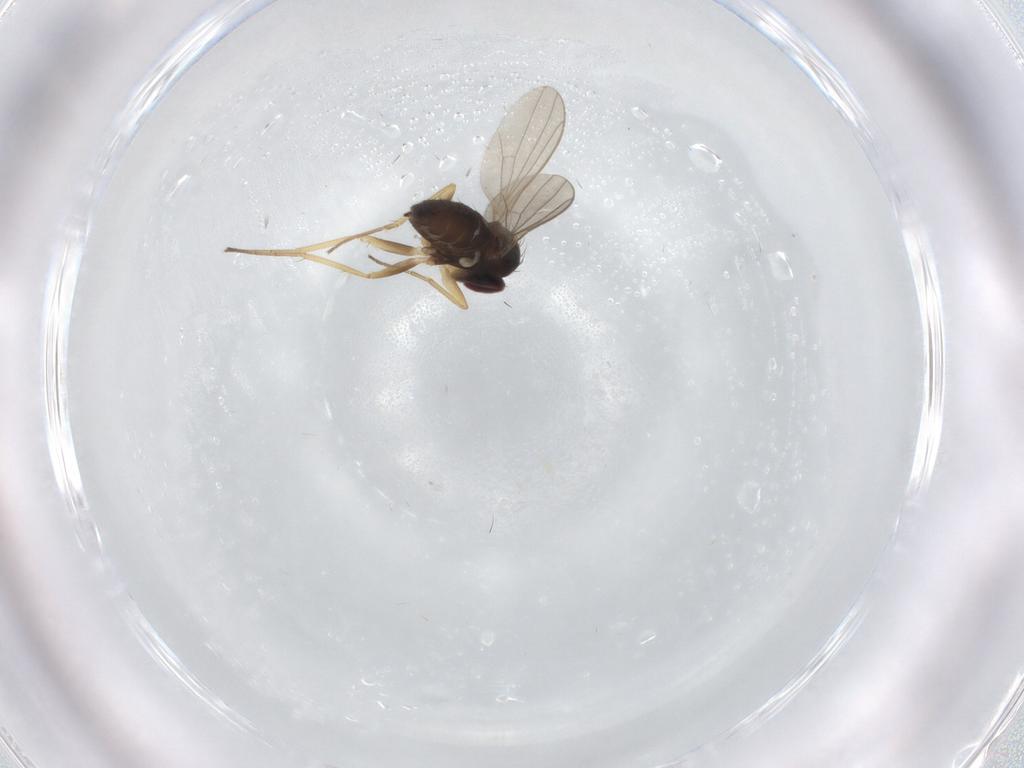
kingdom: Animalia
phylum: Arthropoda
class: Insecta
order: Diptera
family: Dolichopodidae
